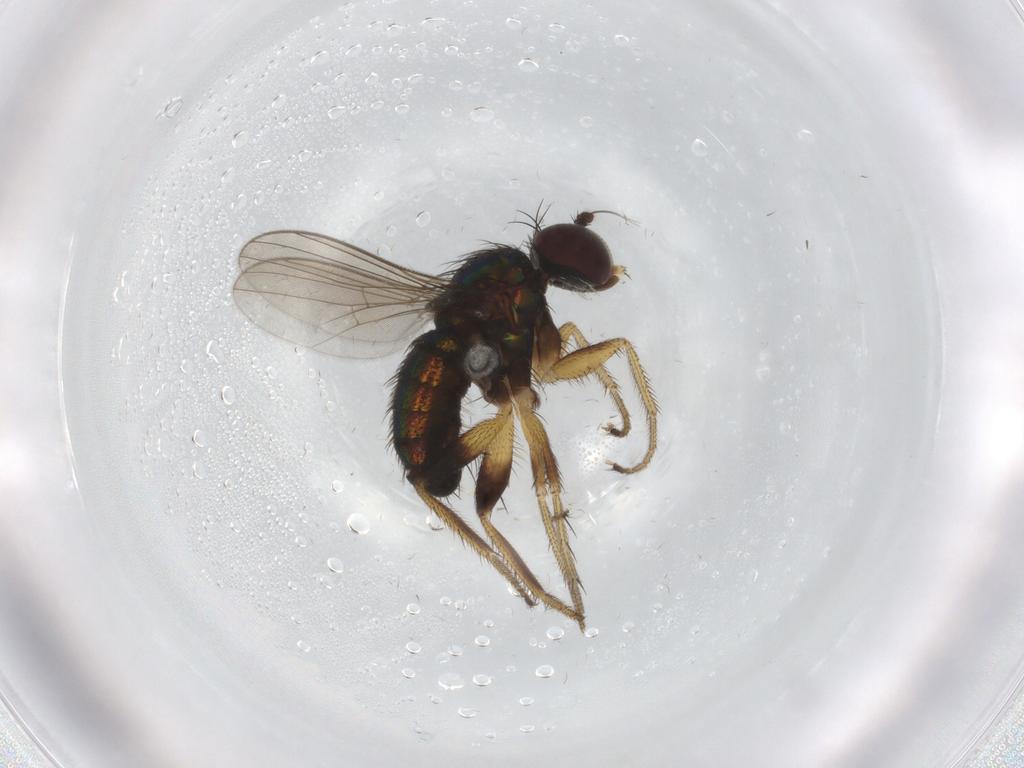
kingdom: Animalia
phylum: Arthropoda
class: Insecta
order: Diptera
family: Dolichopodidae
